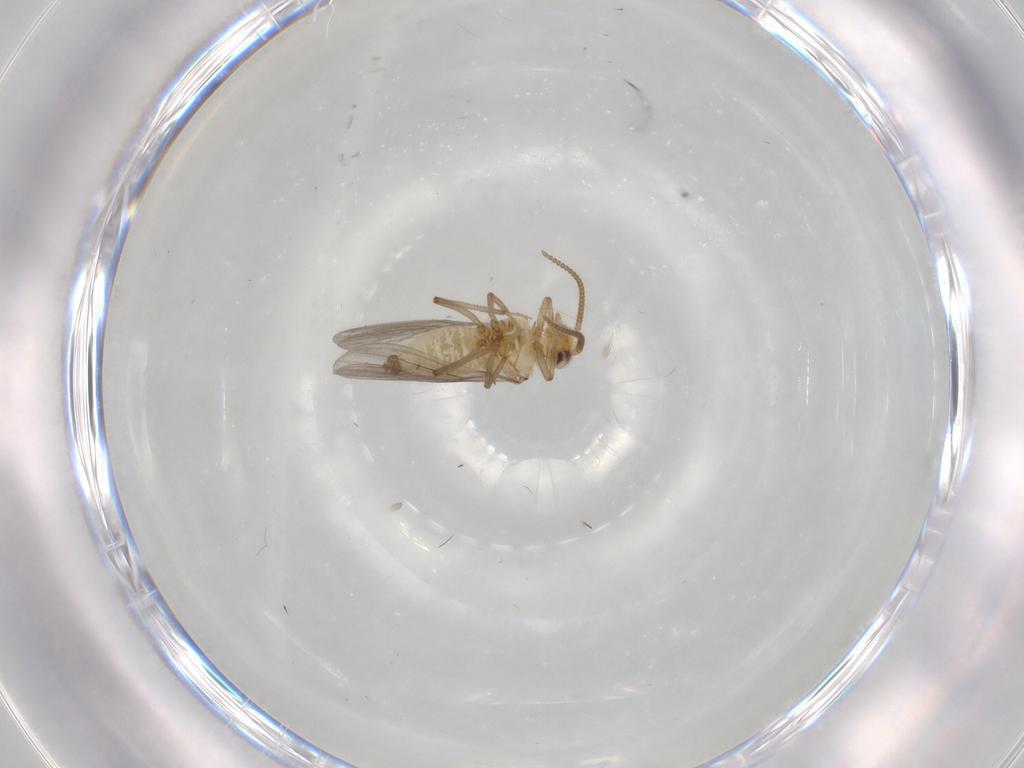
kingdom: Animalia
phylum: Arthropoda
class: Insecta
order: Neuroptera
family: Coniopterygidae
